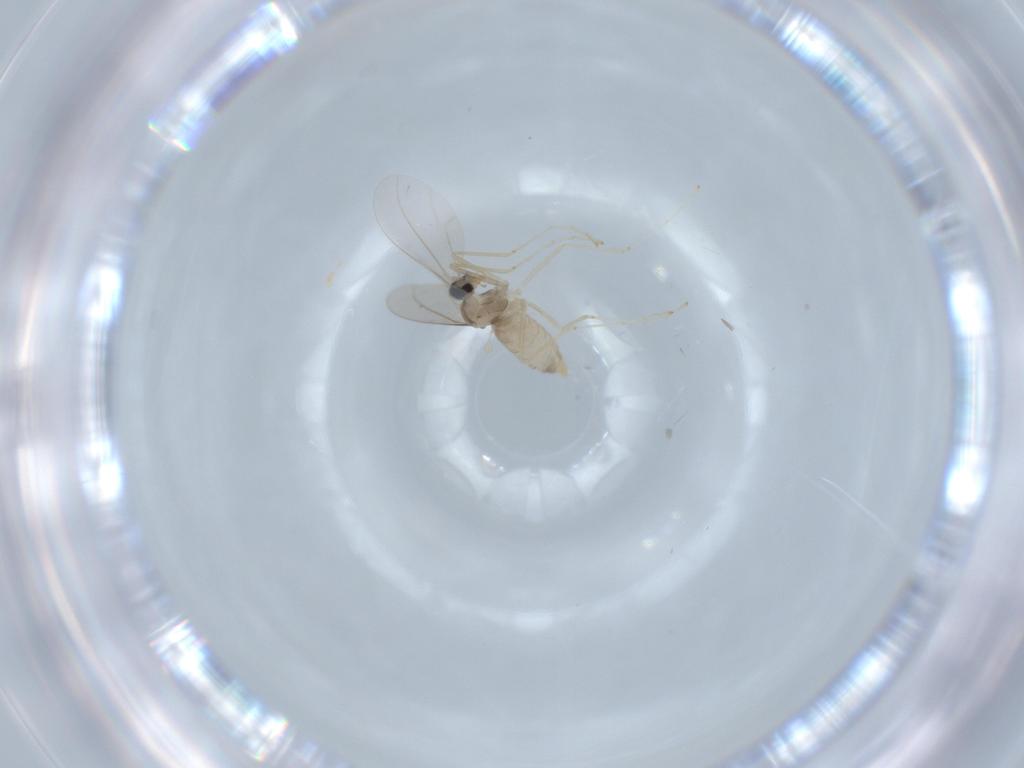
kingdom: Animalia
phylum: Arthropoda
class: Insecta
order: Diptera
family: Cecidomyiidae
